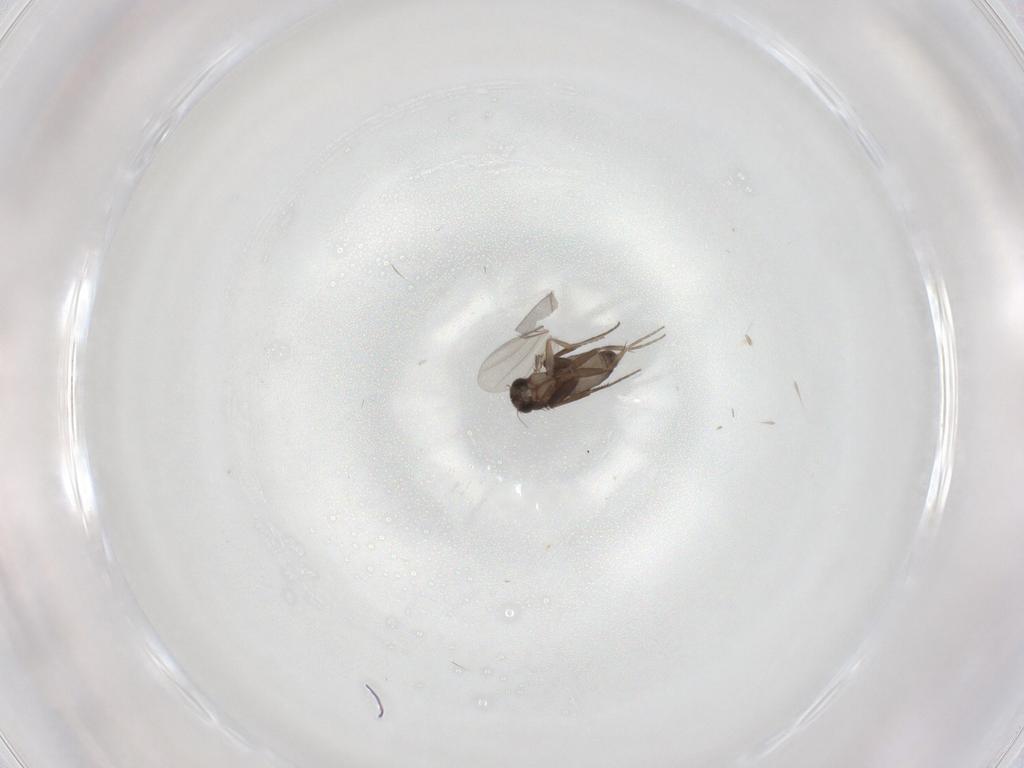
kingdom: Animalia
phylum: Arthropoda
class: Insecta
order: Diptera
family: Phoridae
